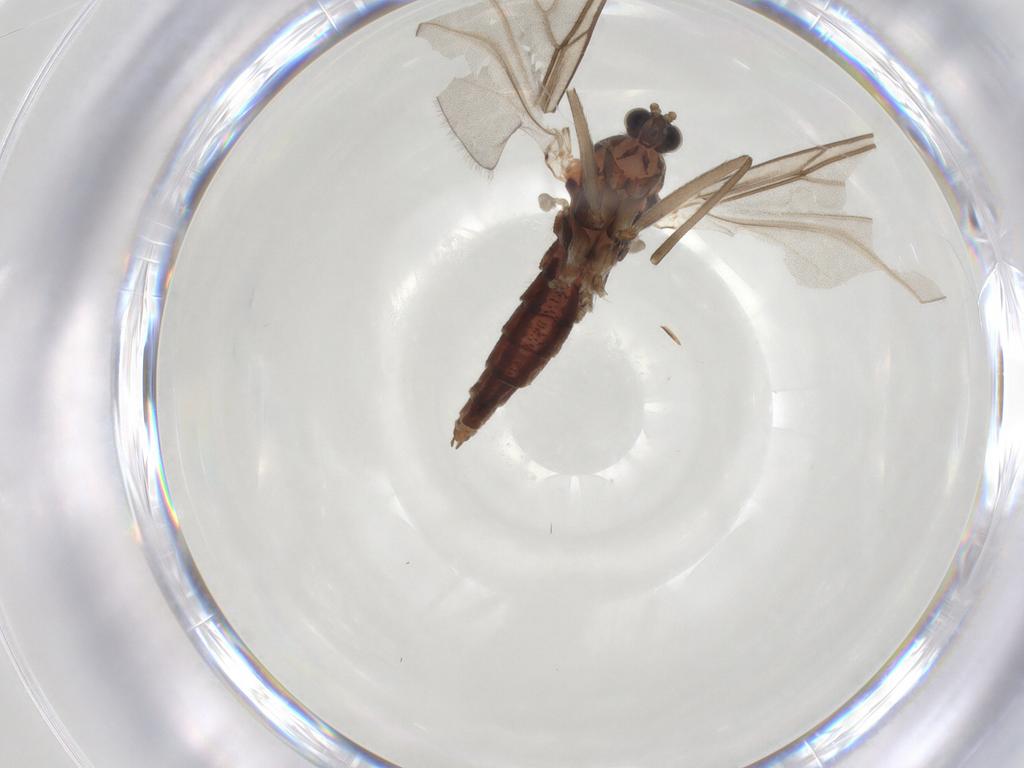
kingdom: Animalia
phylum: Arthropoda
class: Insecta
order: Diptera
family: Cecidomyiidae
